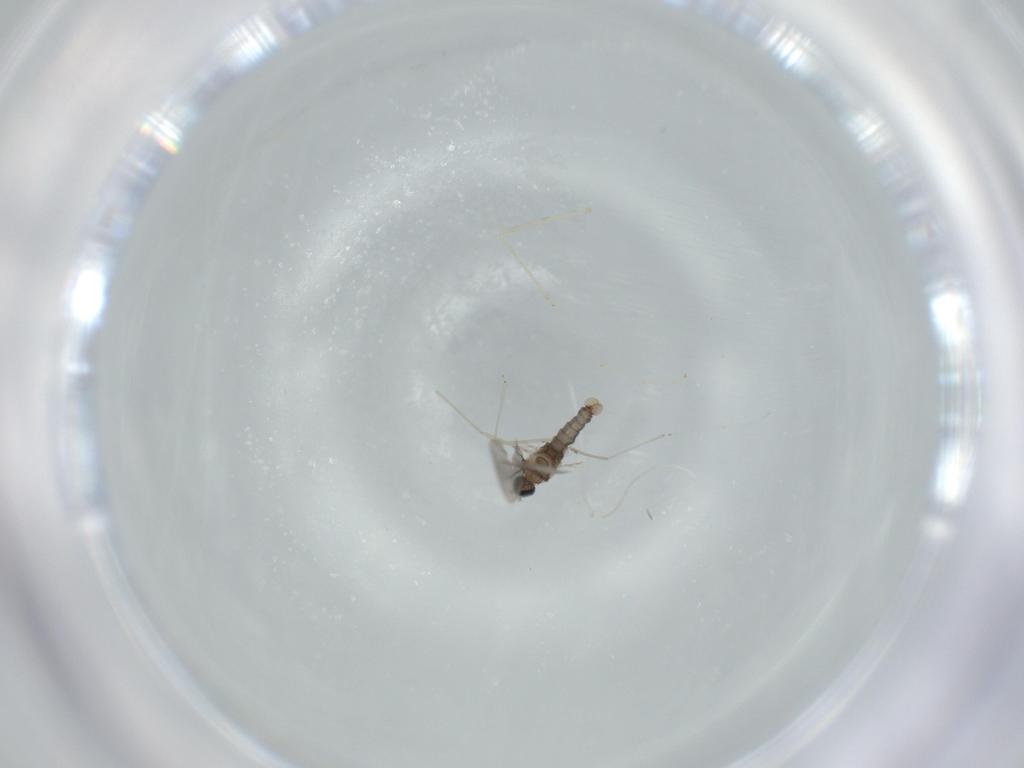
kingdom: Animalia
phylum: Arthropoda
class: Insecta
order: Diptera
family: Cecidomyiidae
